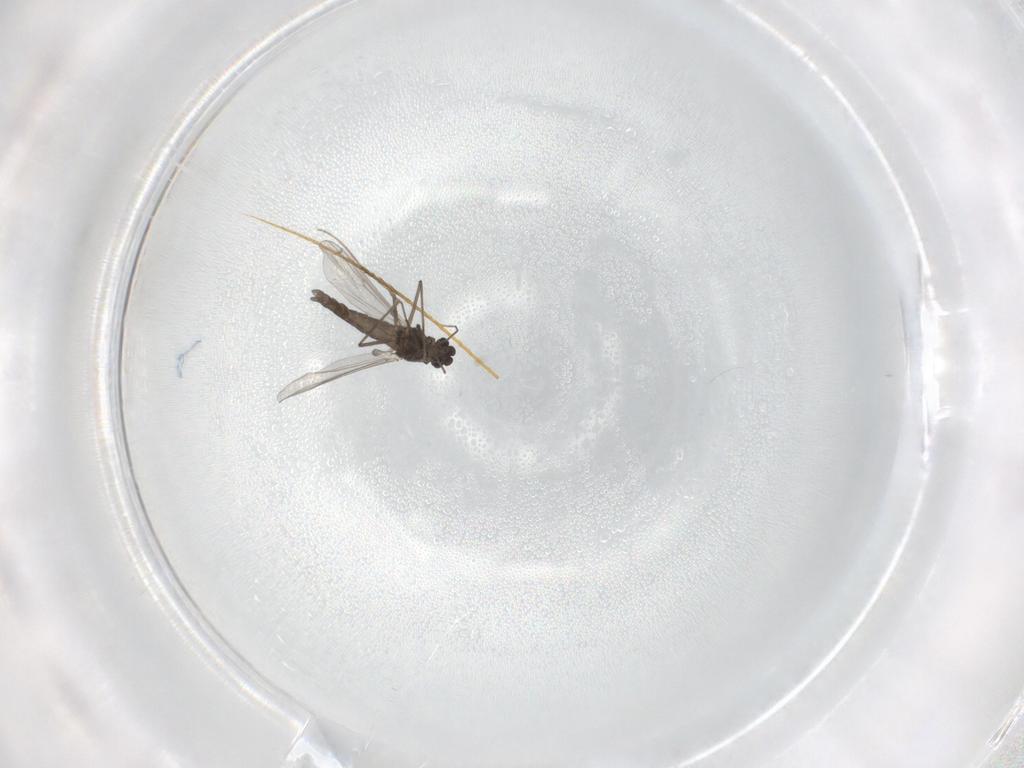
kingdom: Animalia
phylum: Arthropoda
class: Insecta
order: Diptera
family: Chironomidae
